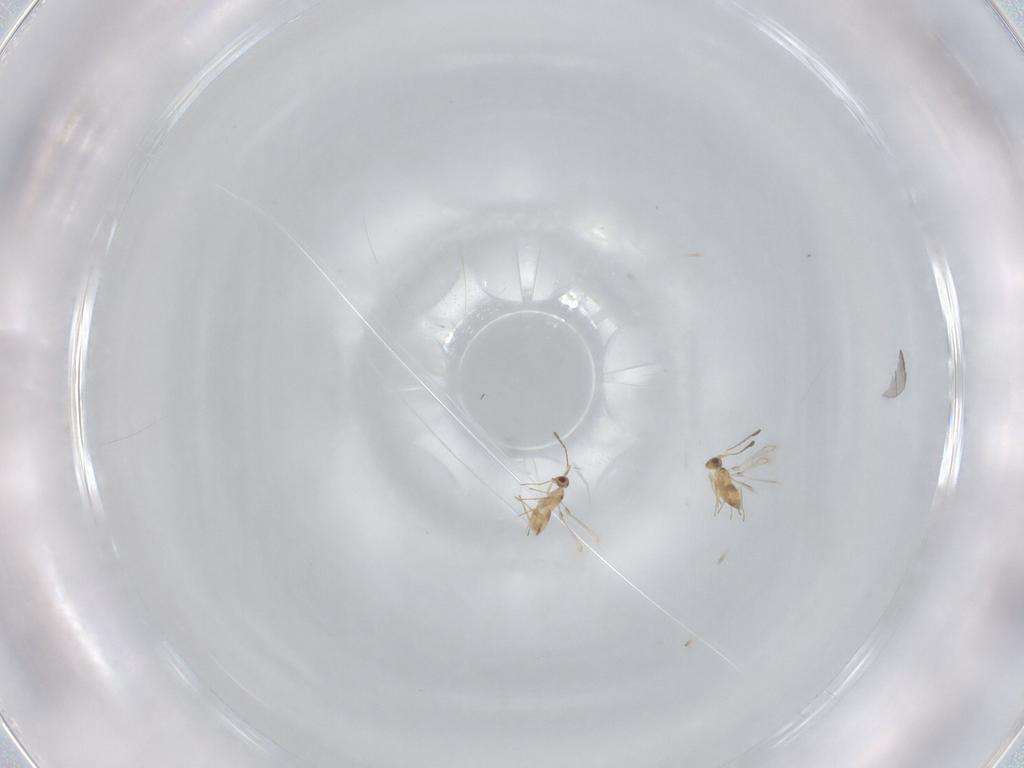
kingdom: Animalia
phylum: Arthropoda
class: Insecta
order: Hymenoptera
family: Mymaridae
